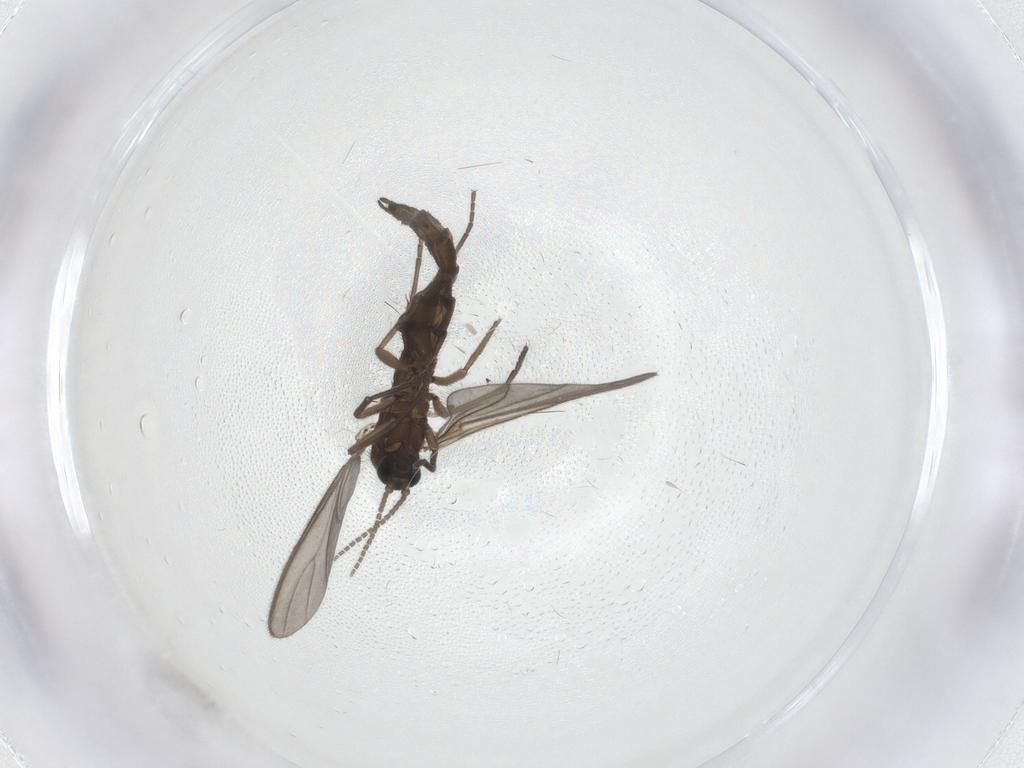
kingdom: Animalia
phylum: Arthropoda
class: Insecta
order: Diptera
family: Sciaridae
